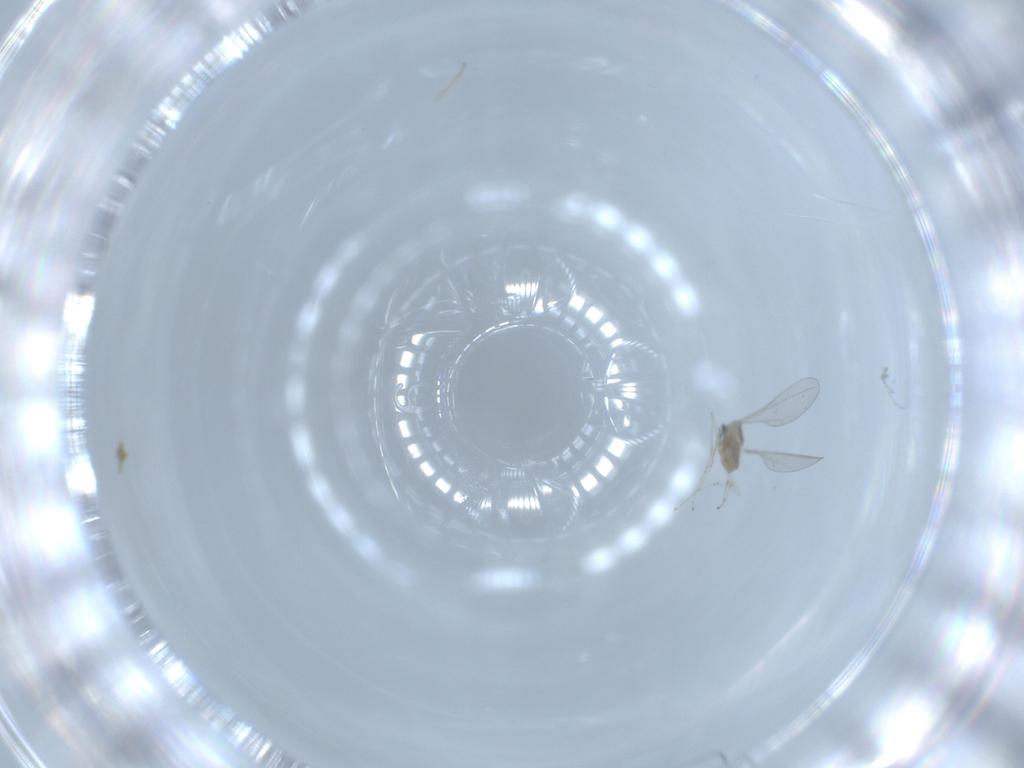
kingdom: Animalia
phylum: Arthropoda
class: Insecta
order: Diptera
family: Cecidomyiidae
